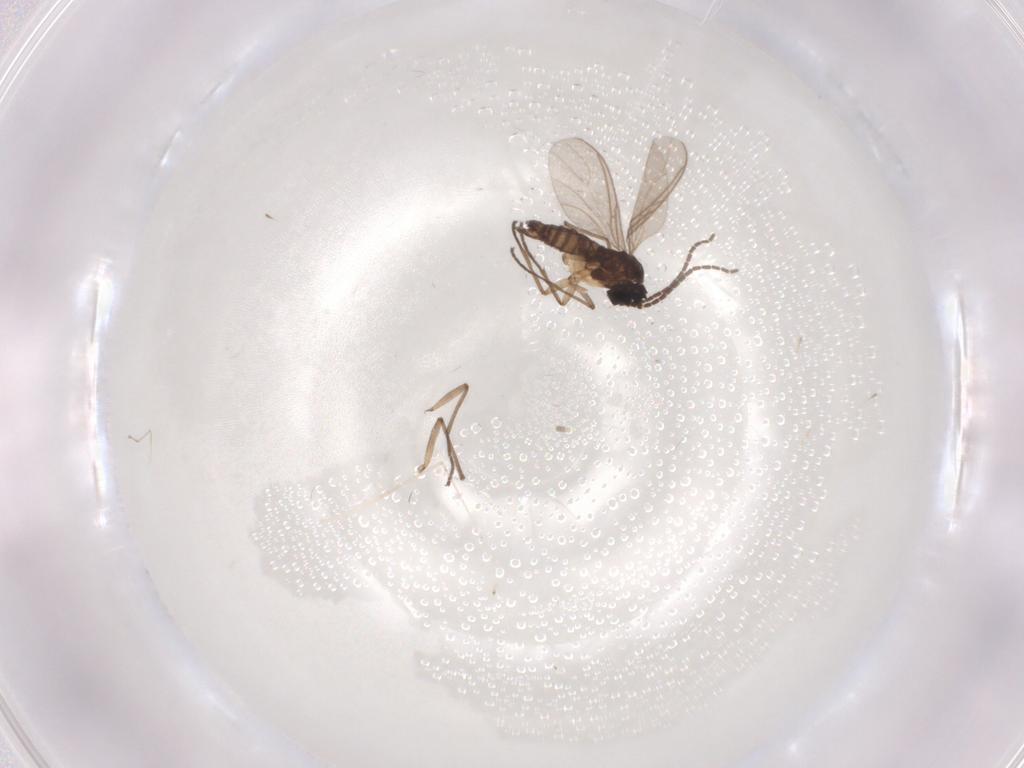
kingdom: Animalia
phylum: Arthropoda
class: Insecta
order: Diptera
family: Sciaridae
